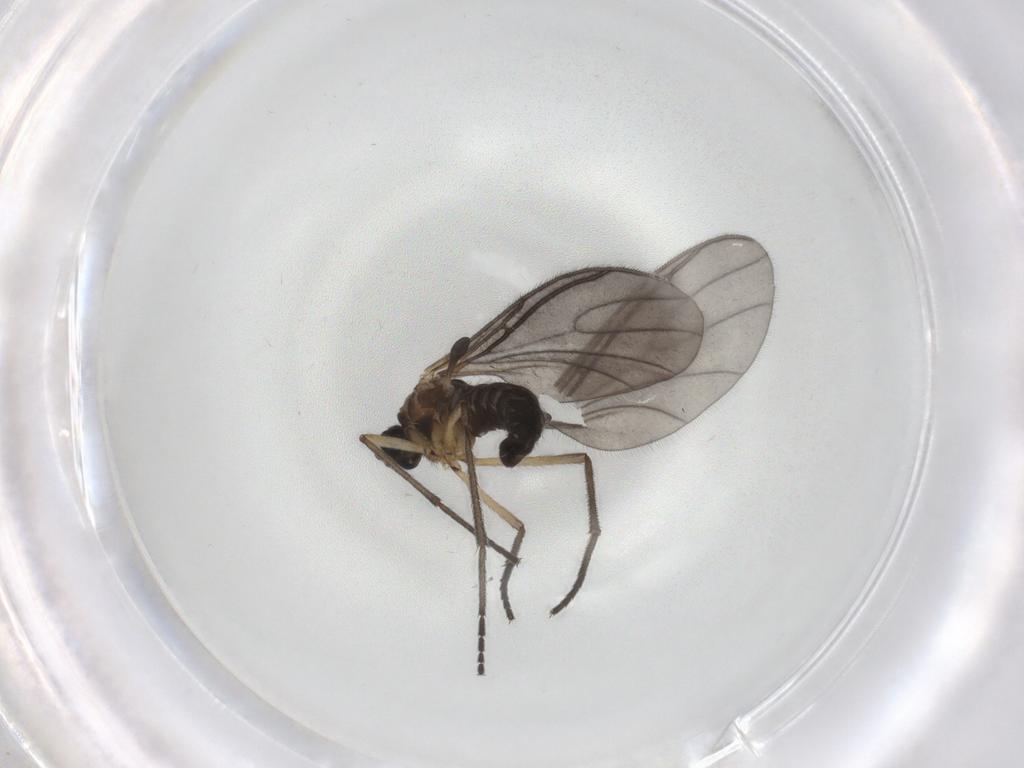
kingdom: Animalia
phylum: Arthropoda
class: Insecta
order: Diptera
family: Sciaridae
